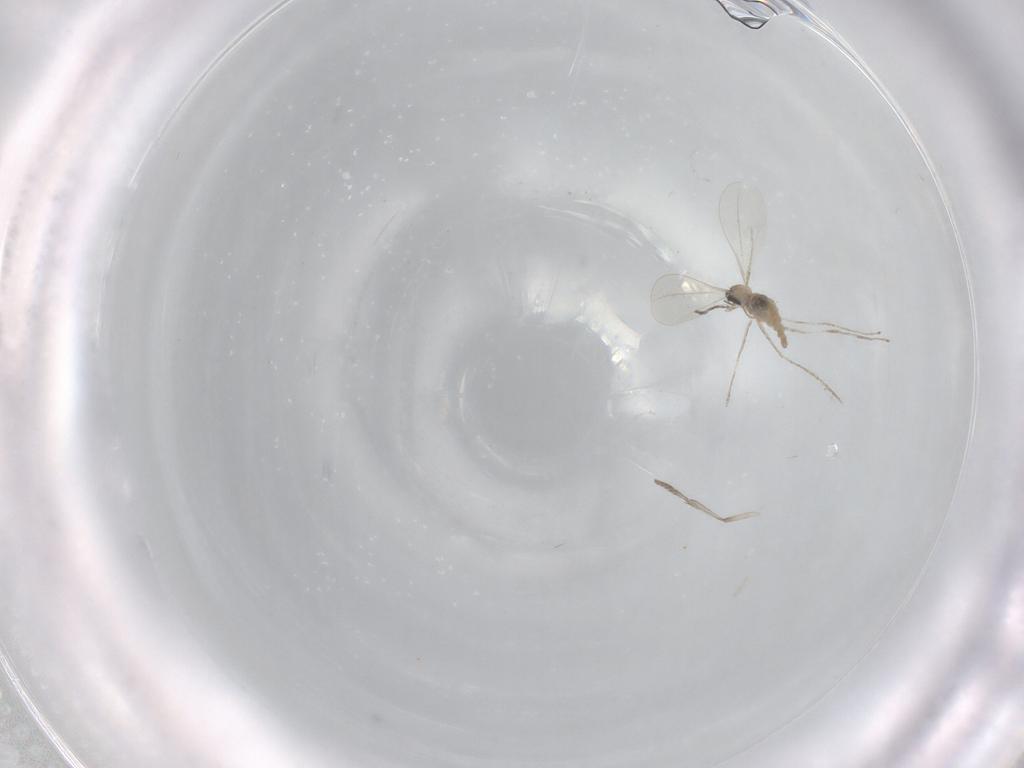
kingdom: Animalia
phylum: Arthropoda
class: Insecta
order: Diptera
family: Cecidomyiidae
